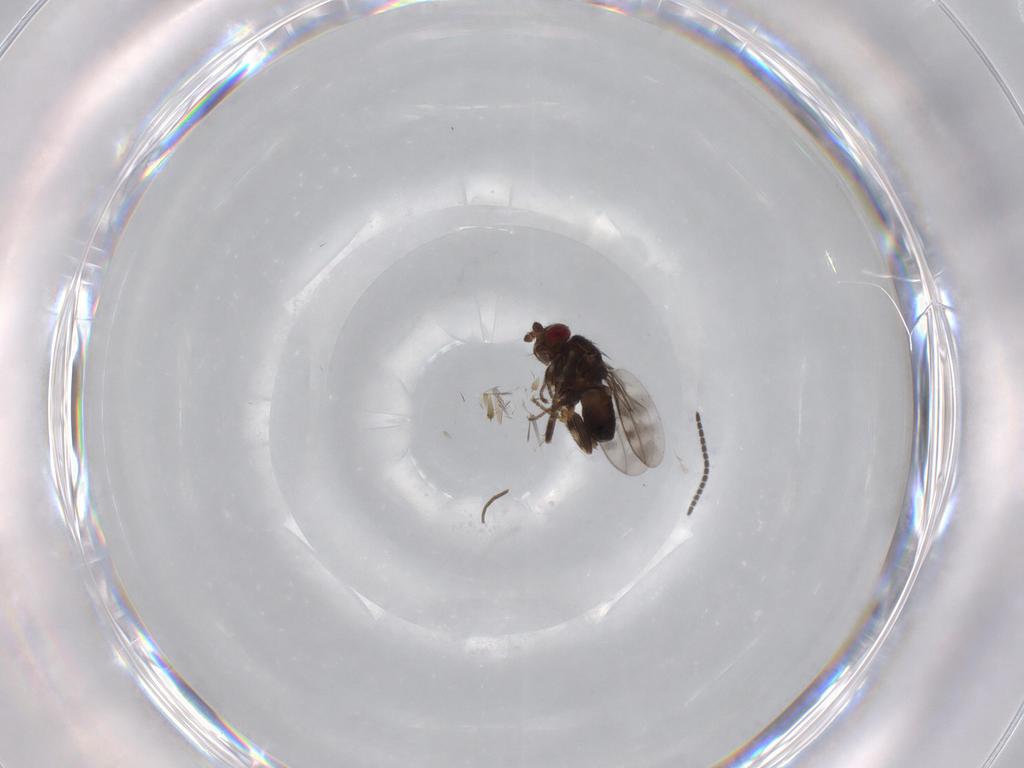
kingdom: Animalia
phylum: Arthropoda
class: Insecta
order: Diptera
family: Sphaeroceridae
